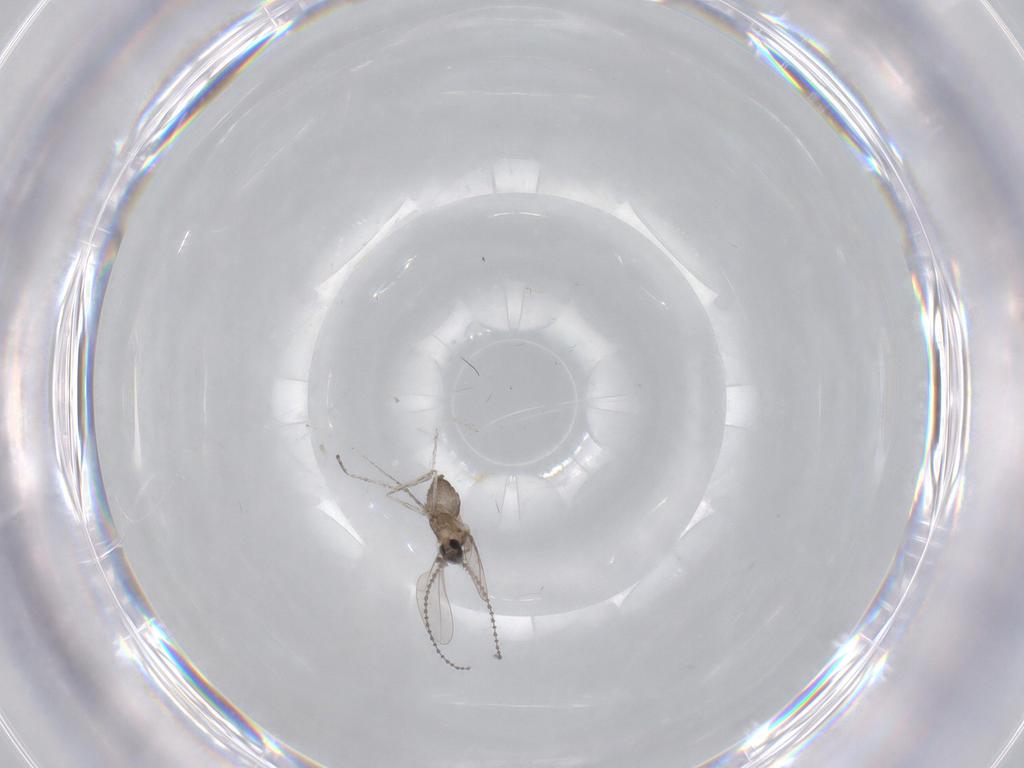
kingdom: Animalia
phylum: Arthropoda
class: Insecta
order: Diptera
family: Cecidomyiidae
